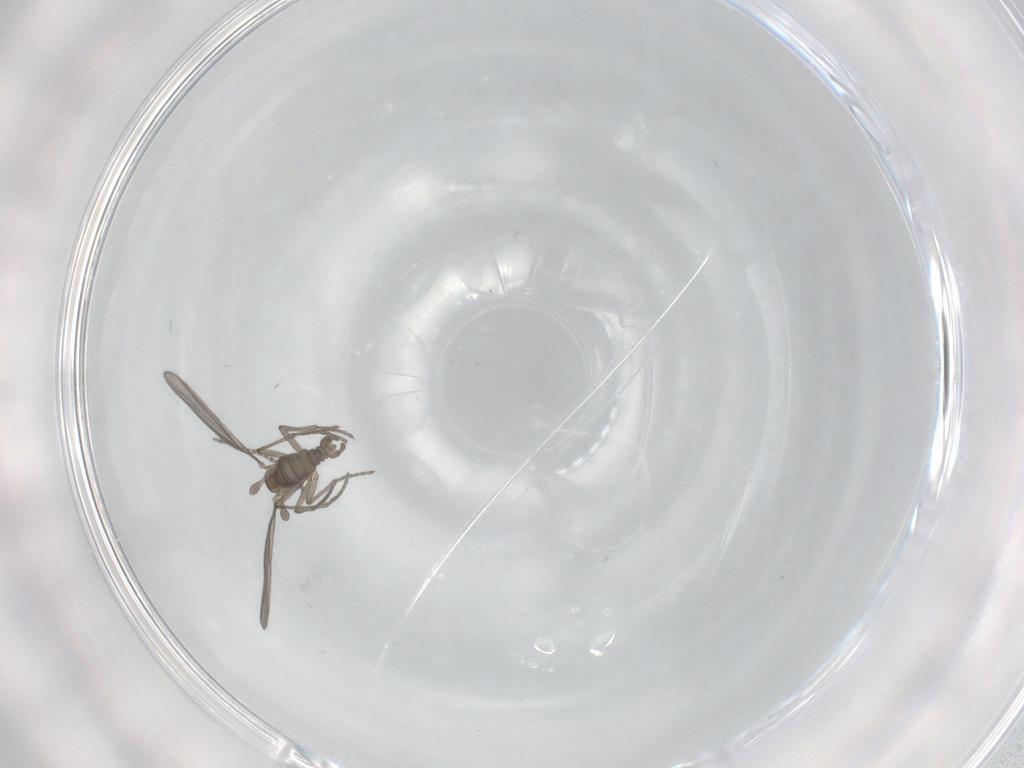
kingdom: Animalia
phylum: Arthropoda
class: Insecta
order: Diptera
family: Sciaridae
